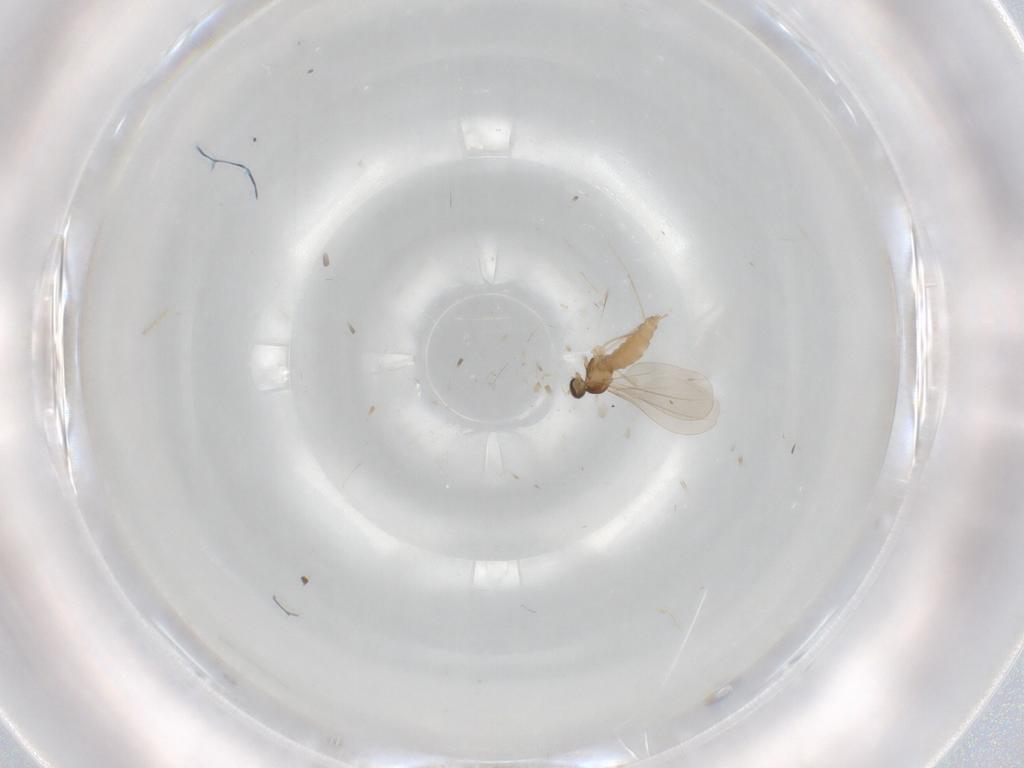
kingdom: Animalia
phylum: Arthropoda
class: Insecta
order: Diptera
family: Cecidomyiidae
